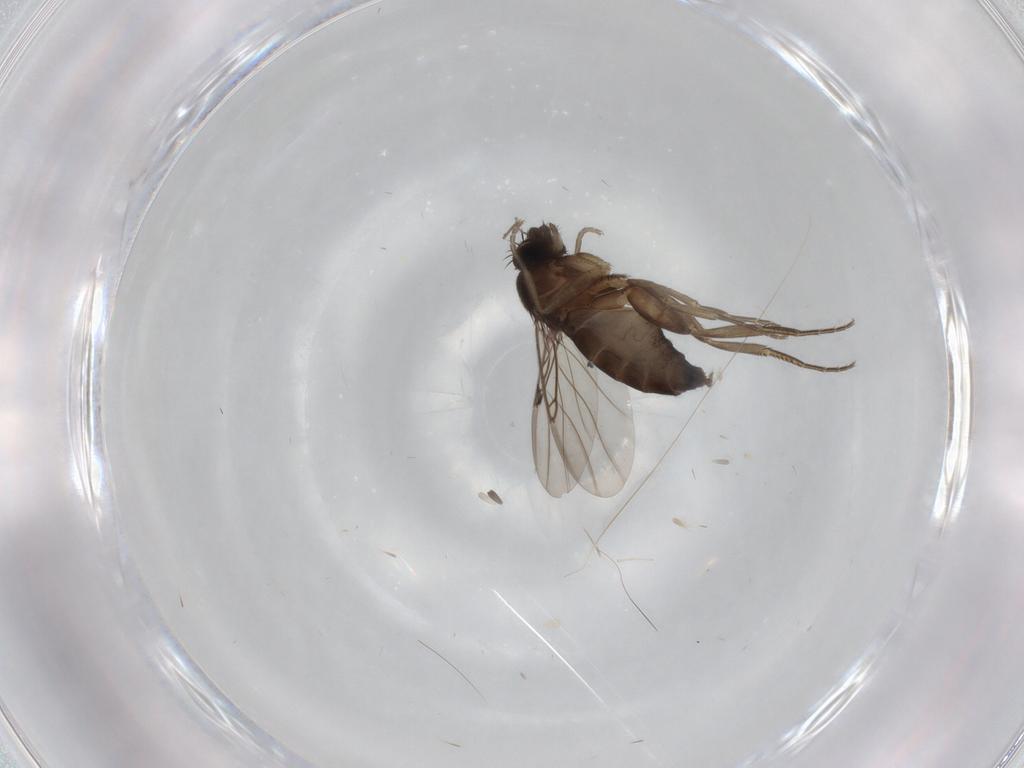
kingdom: Animalia
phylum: Arthropoda
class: Insecta
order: Diptera
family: Phoridae
